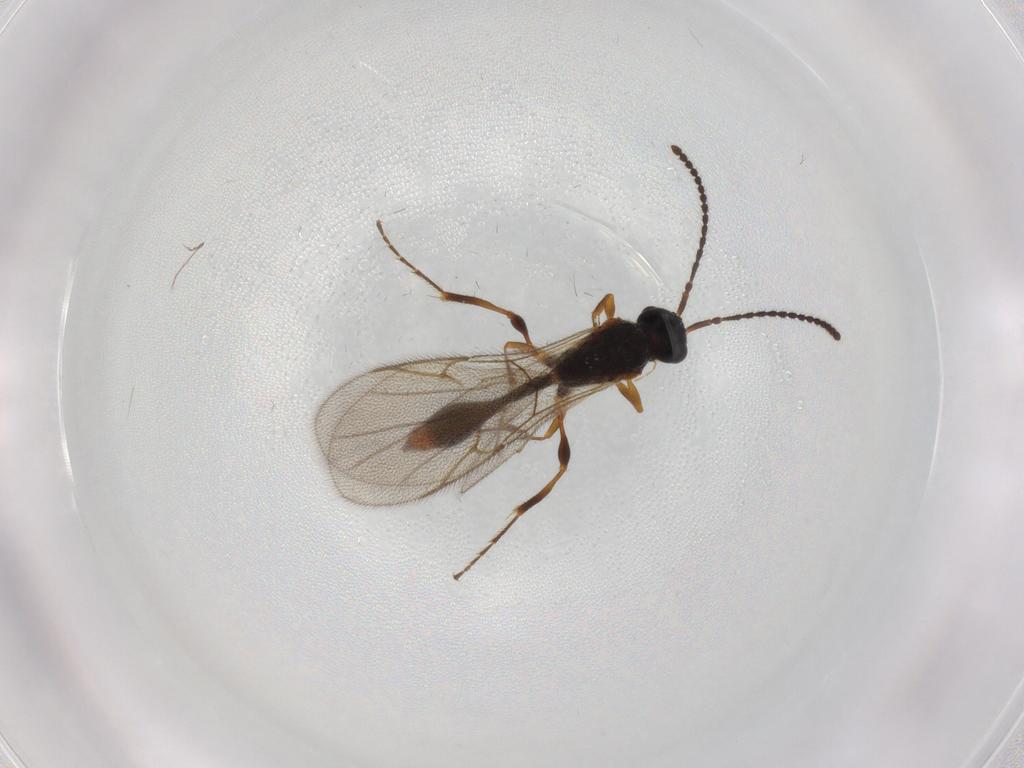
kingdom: Animalia
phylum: Arthropoda
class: Insecta
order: Hymenoptera
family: Diapriidae
